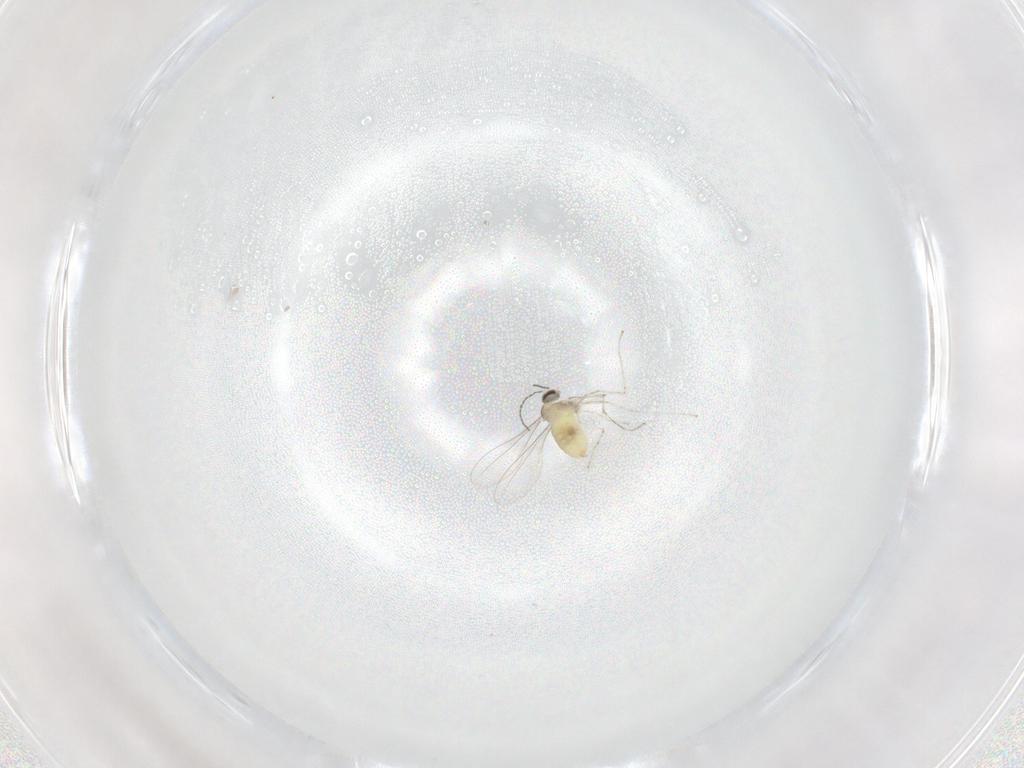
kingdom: Animalia
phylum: Arthropoda
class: Insecta
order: Diptera
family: Cecidomyiidae
